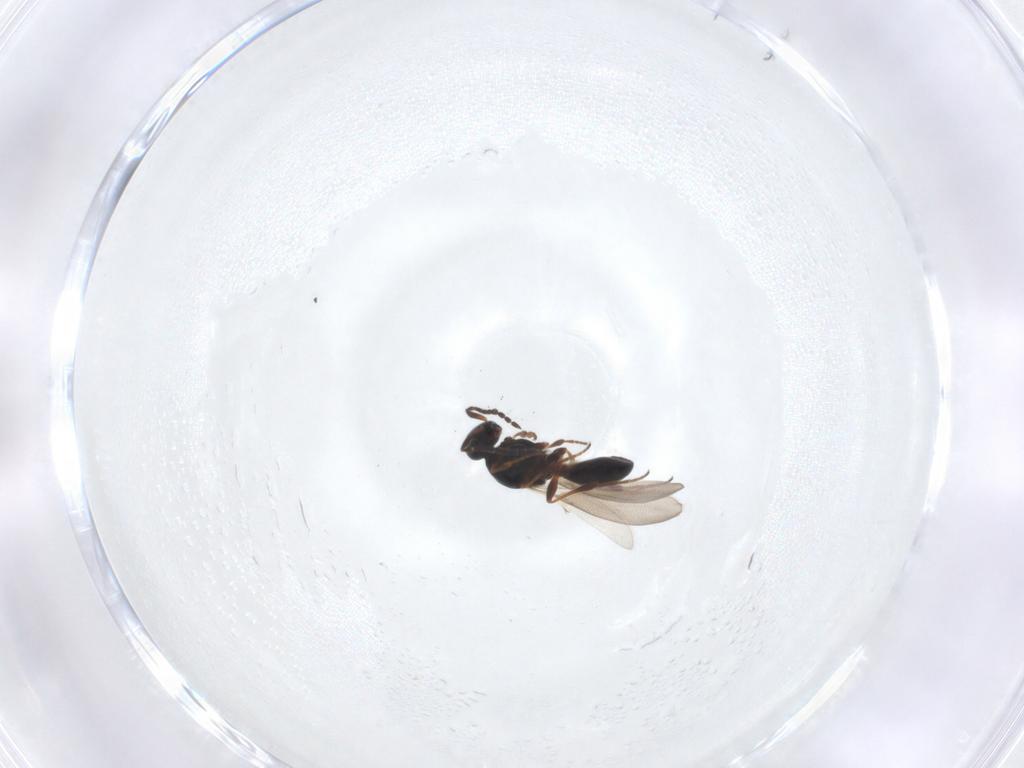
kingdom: Animalia
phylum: Arthropoda
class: Insecta
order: Hymenoptera
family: Platygastridae
